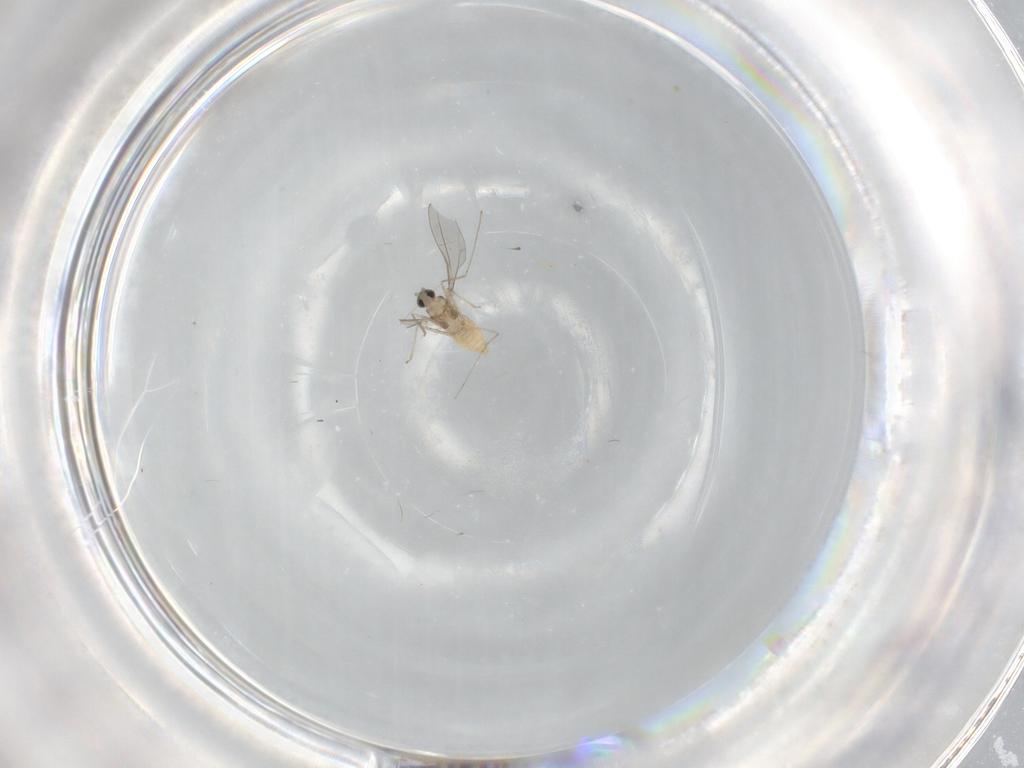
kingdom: Animalia
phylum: Arthropoda
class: Insecta
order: Diptera
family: Cecidomyiidae
